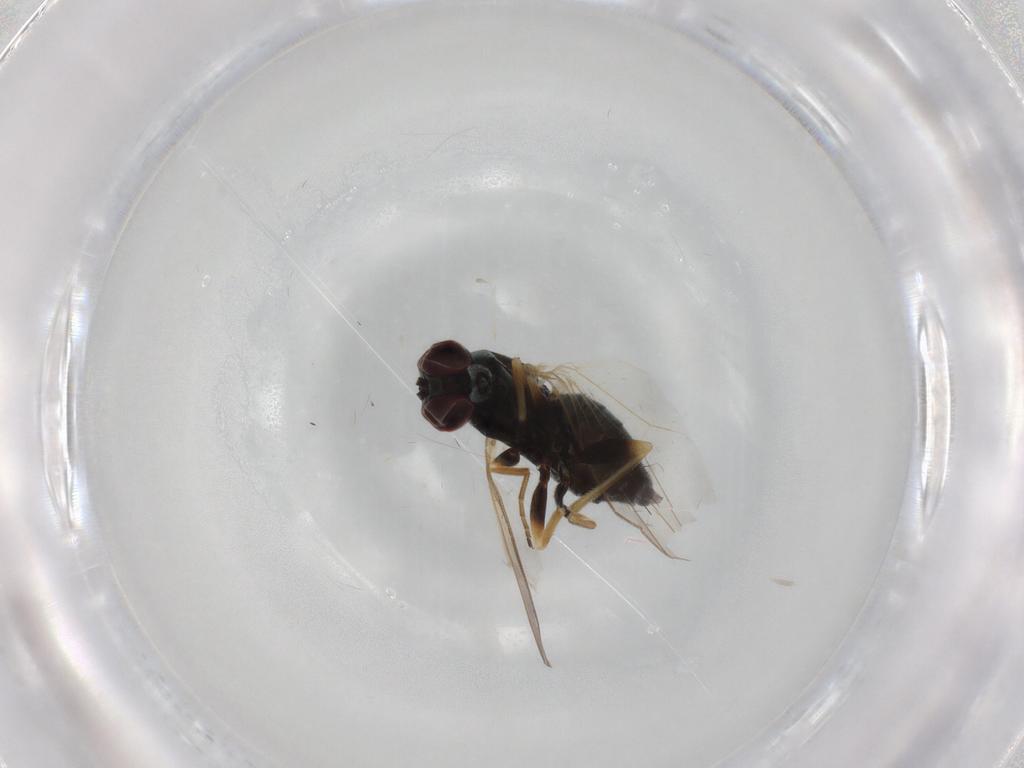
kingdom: Animalia
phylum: Arthropoda
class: Insecta
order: Diptera
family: Dolichopodidae
